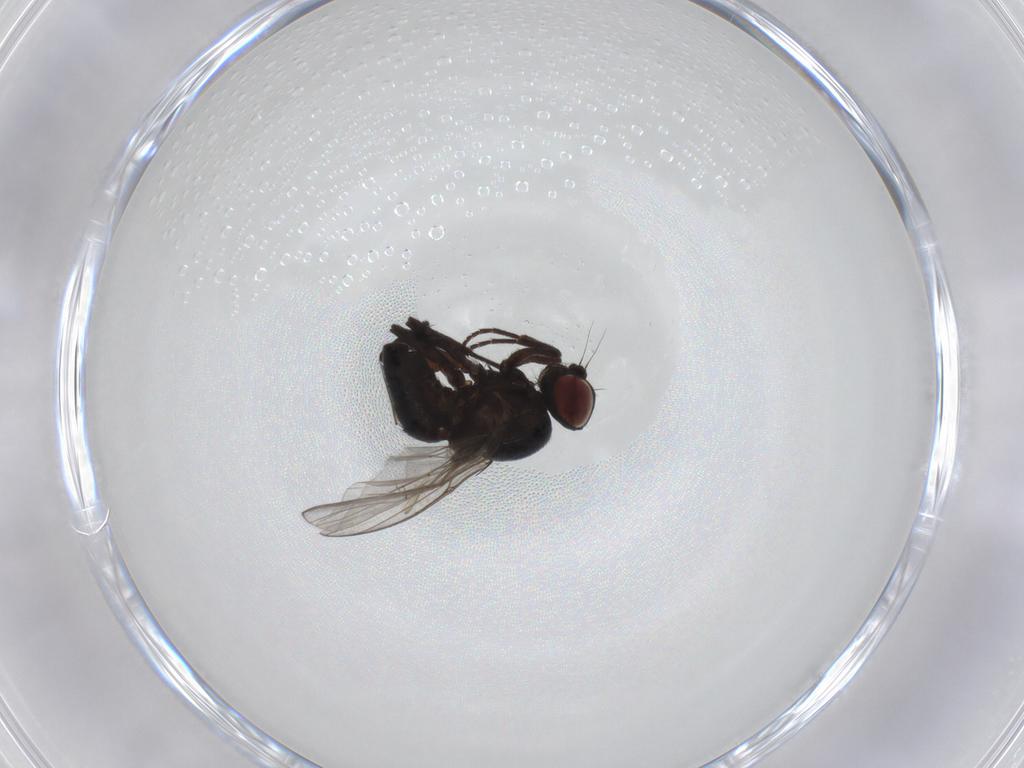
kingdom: Animalia
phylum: Arthropoda
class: Insecta
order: Diptera
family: Agromyzidae
